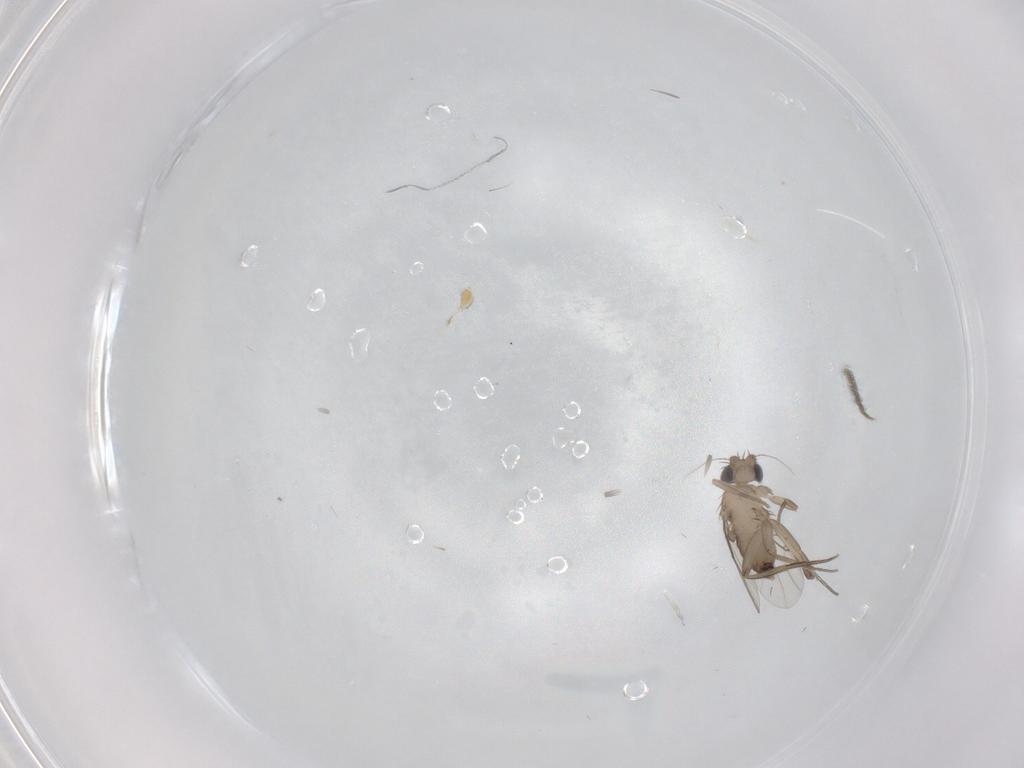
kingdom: Animalia
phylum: Arthropoda
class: Insecta
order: Diptera
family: Phoridae
